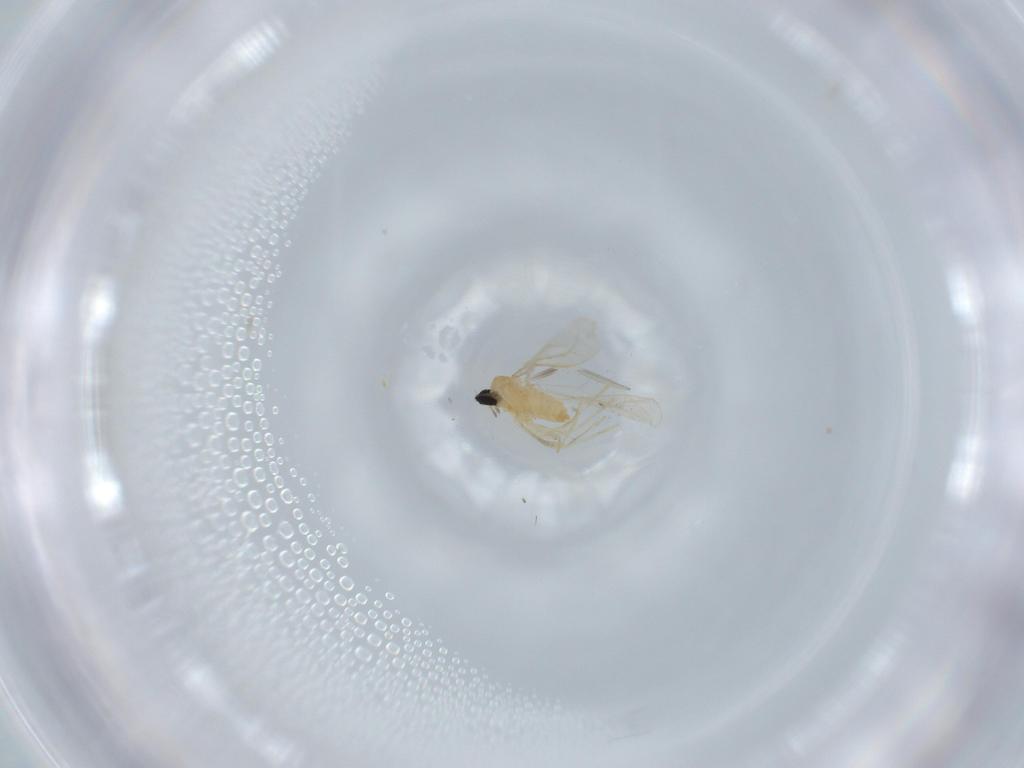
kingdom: Animalia
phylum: Arthropoda
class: Insecta
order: Diptera
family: Cecidomyiidae
